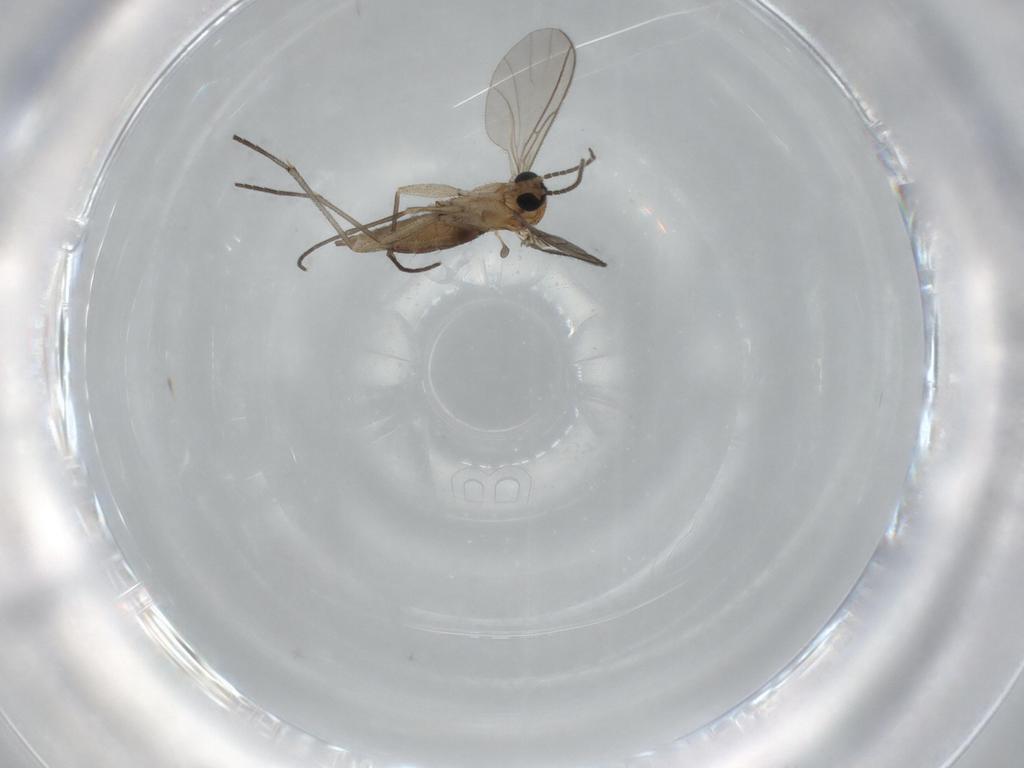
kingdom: Animalia
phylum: Arthropoda
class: Insecta
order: Diptera
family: Sciaridae
